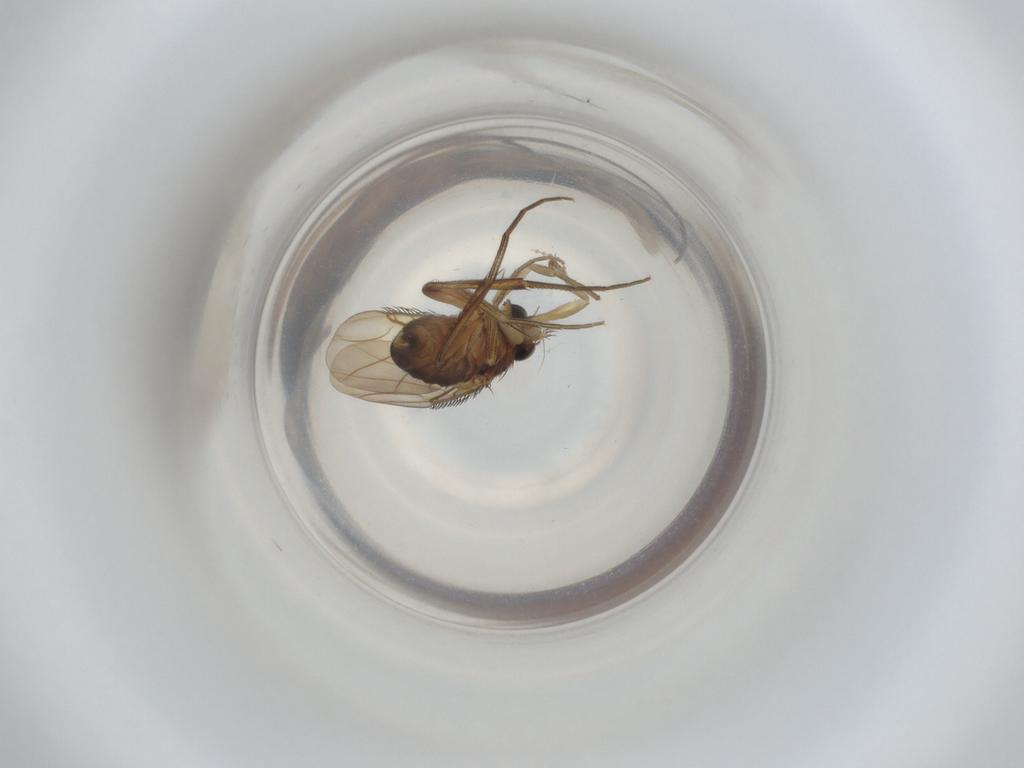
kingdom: Animalia
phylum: Arthropoda
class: Insecta
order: Diptera
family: Phoridae
